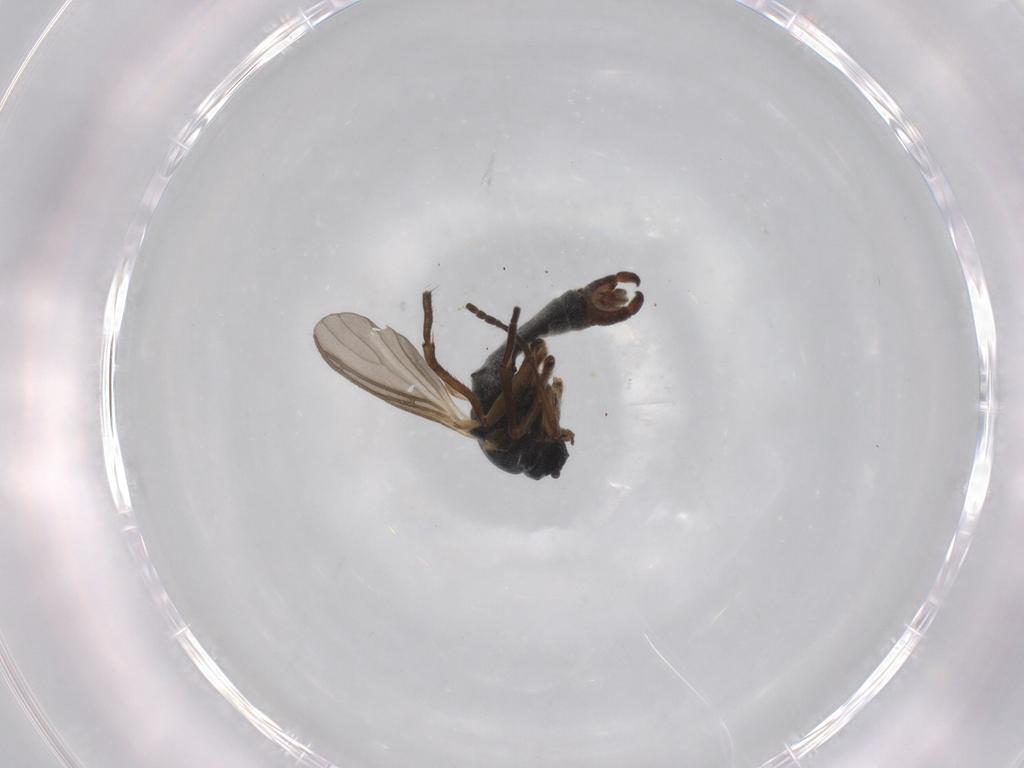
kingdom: Animalia
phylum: Arthropoda
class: Insecta
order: Diptera
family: Sciaridae
